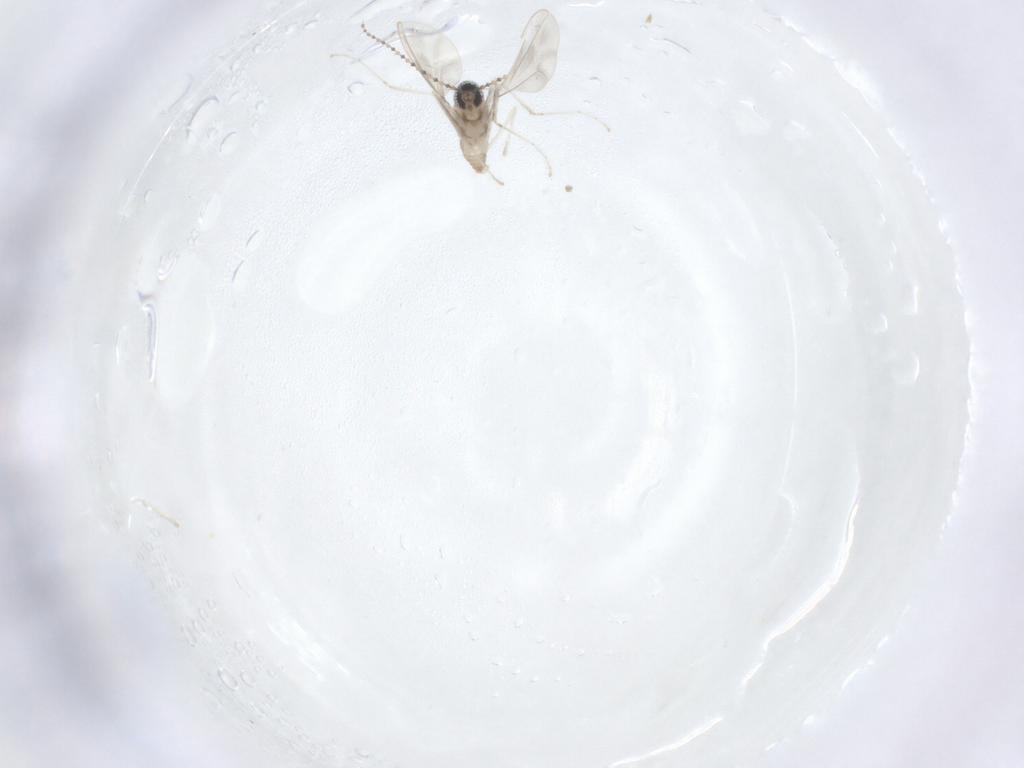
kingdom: Animalia
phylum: Arthropoda
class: Insecta
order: Diptera
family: Cecidomyiidae
